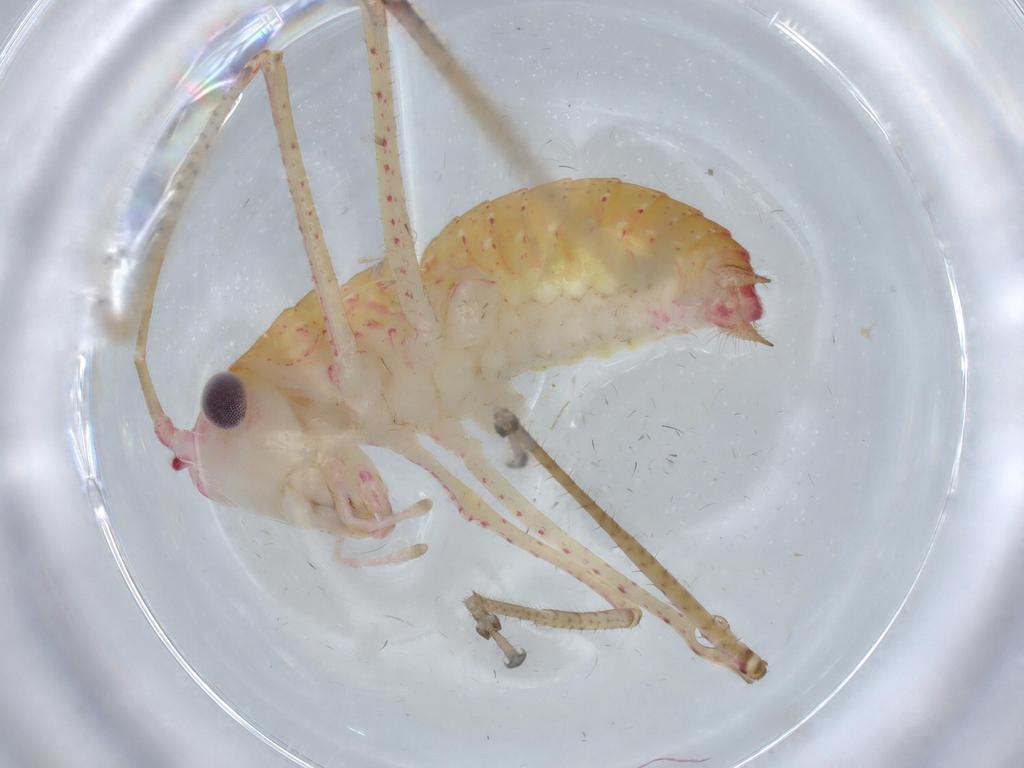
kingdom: Animalia
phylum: Arthropoda
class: Insecta
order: Orthoptera
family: Tettigoniidae
